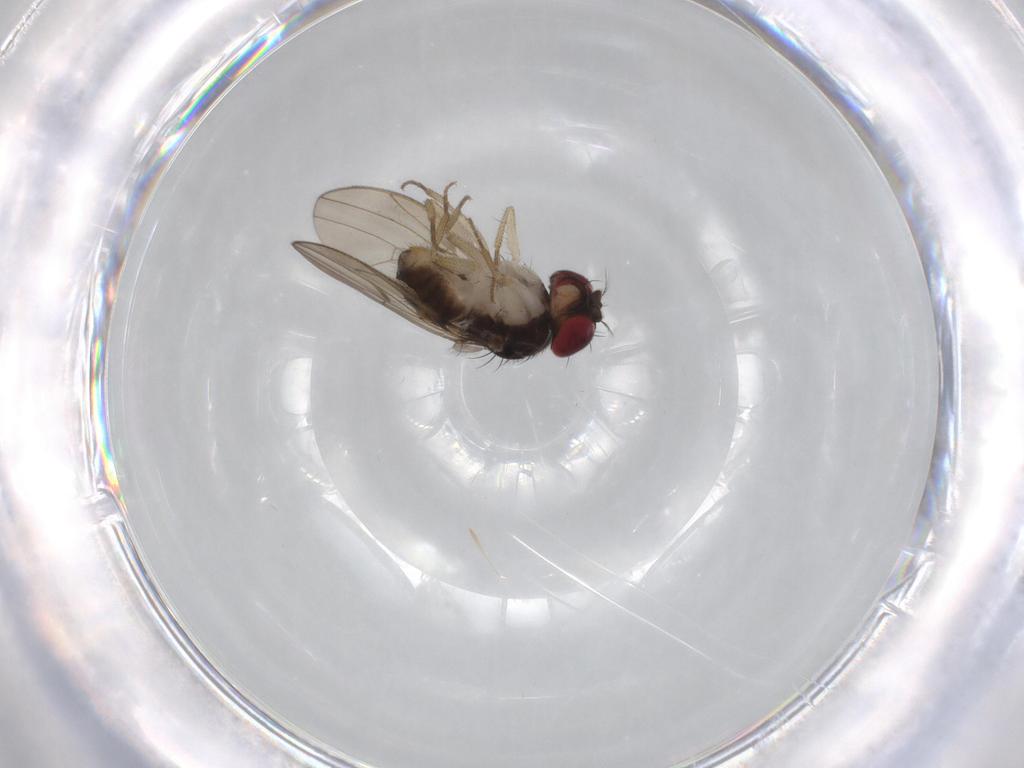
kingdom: Animalia
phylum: Arthropoda
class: Insecta
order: Diptera
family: Drosophilidae
